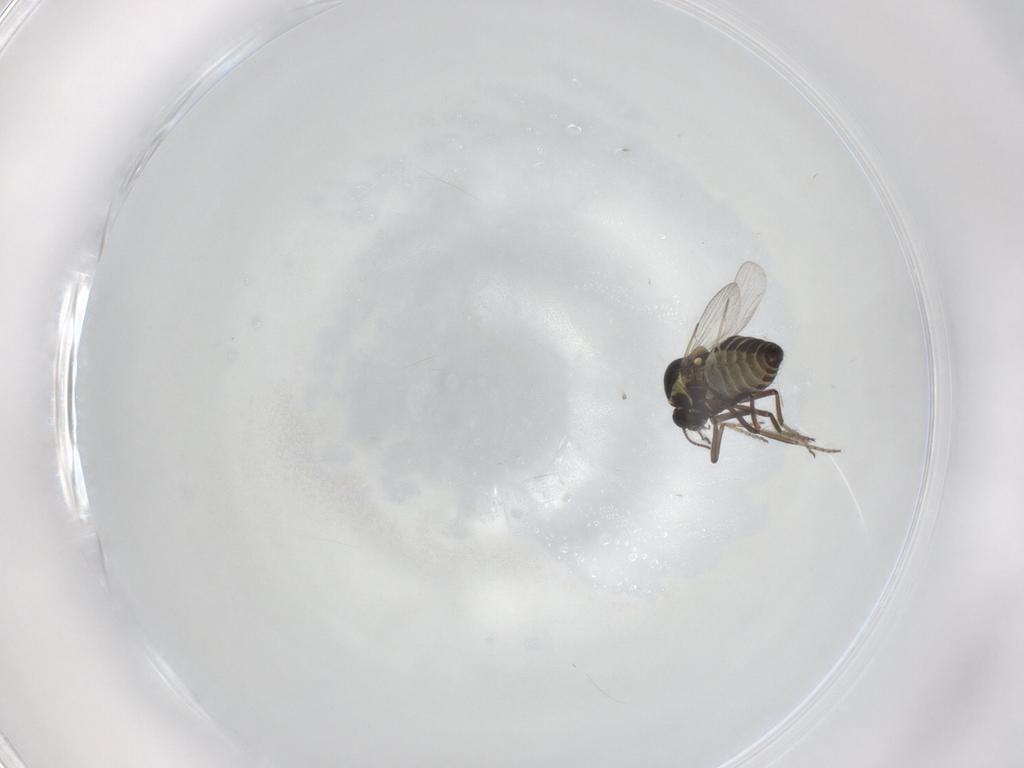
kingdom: Animalia
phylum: Arthropoda
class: Insecta
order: Diptera
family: Ceratopogonidae
